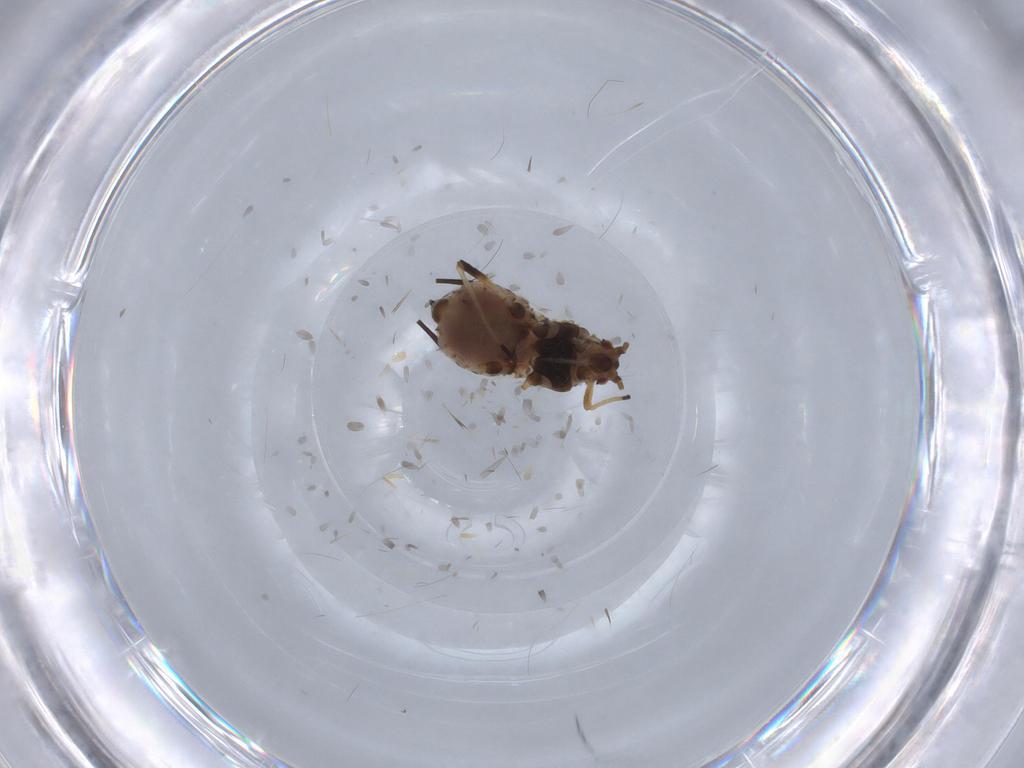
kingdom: Animalia
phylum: Arthropoda
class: Insecta
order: Hemiptera
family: Aphididae
